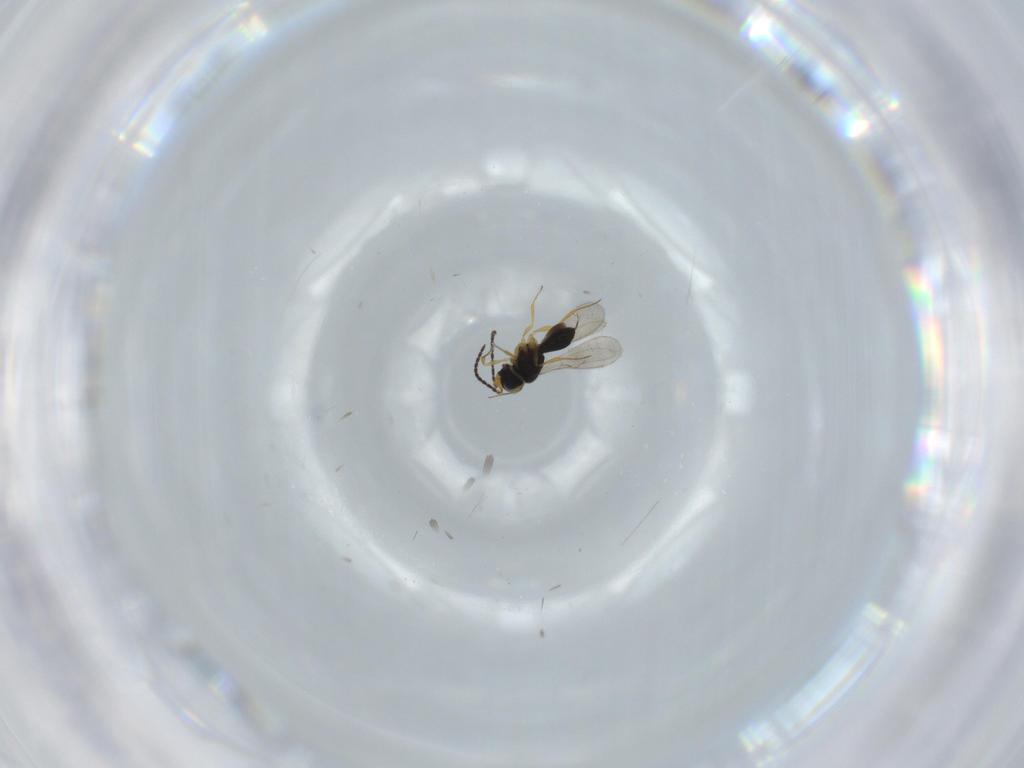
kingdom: Animalia
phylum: Arthropoda
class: Insecta
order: Hymenoptera
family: Scelionidae
